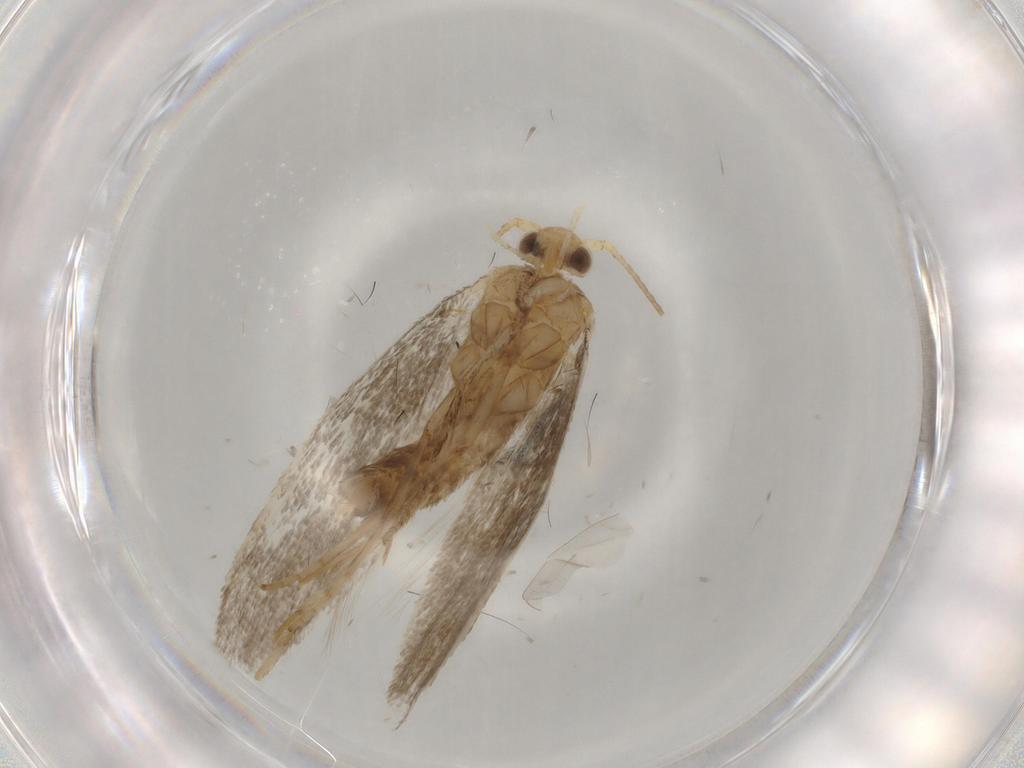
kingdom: Animalia
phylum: Arthropoda
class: Insecta
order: Lepidoptera
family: Argyresthiidae
